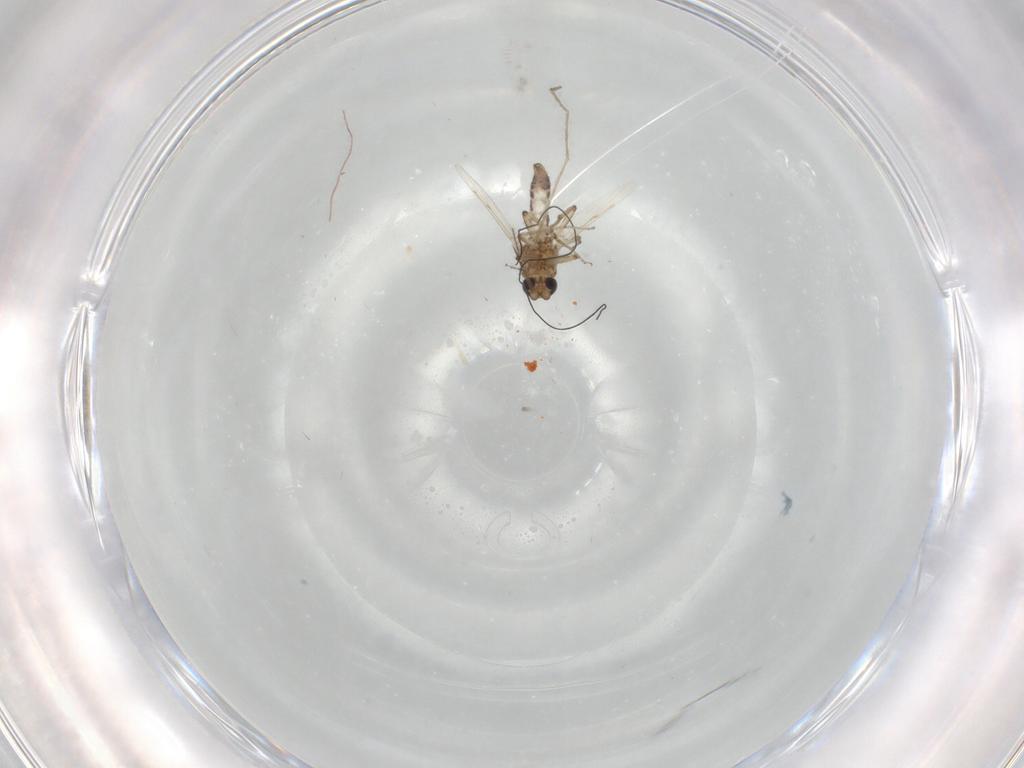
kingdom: Animalia
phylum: Arthropoda
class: Insecta
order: Diptera
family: Ceratopogonidae
